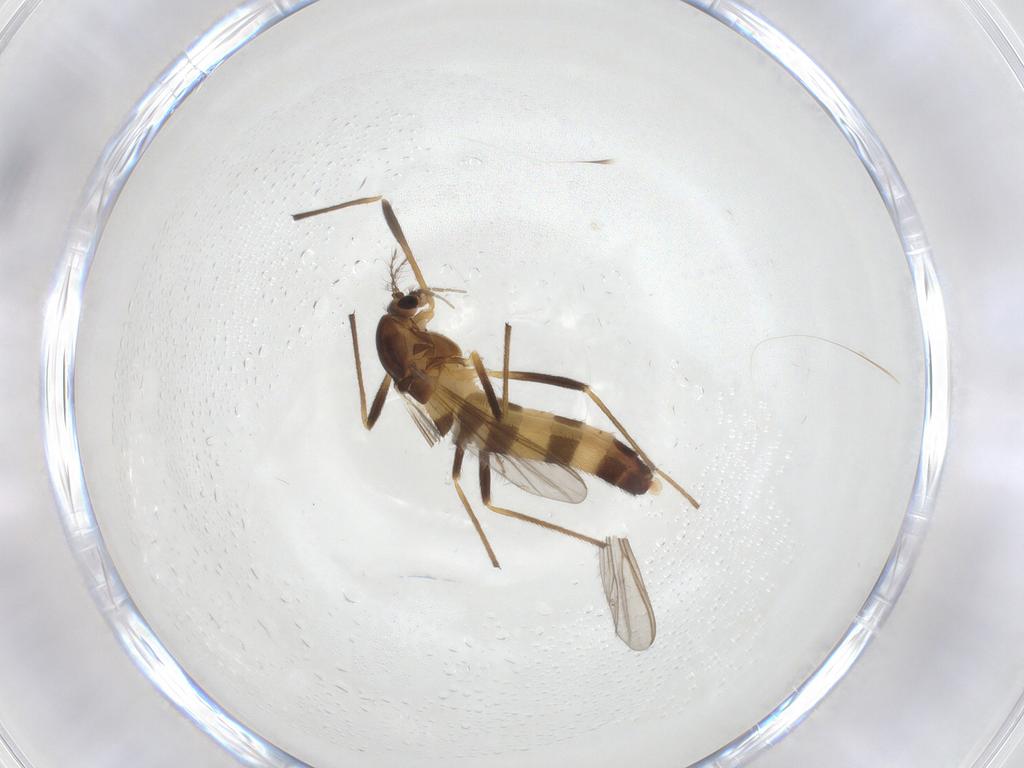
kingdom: Animalia
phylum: Arthropoda
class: Insecta
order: Diptera
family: Chironomidae
